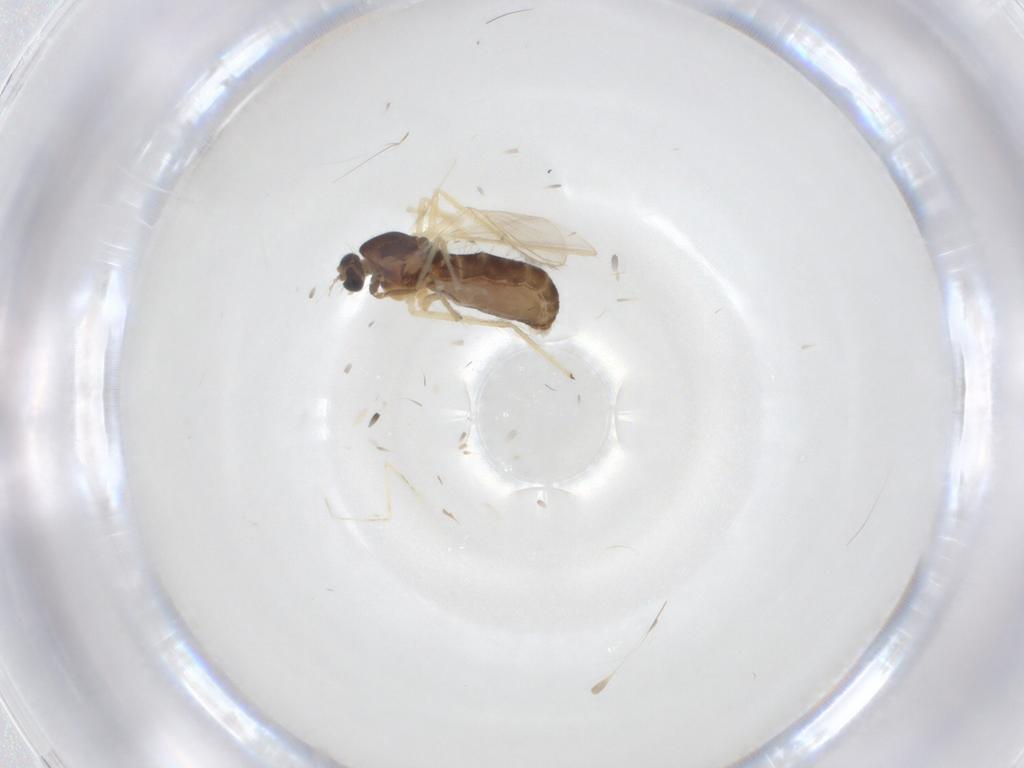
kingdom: Animalia
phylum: Arthropoda
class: Insecta
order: Diptera
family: Chironomidae
